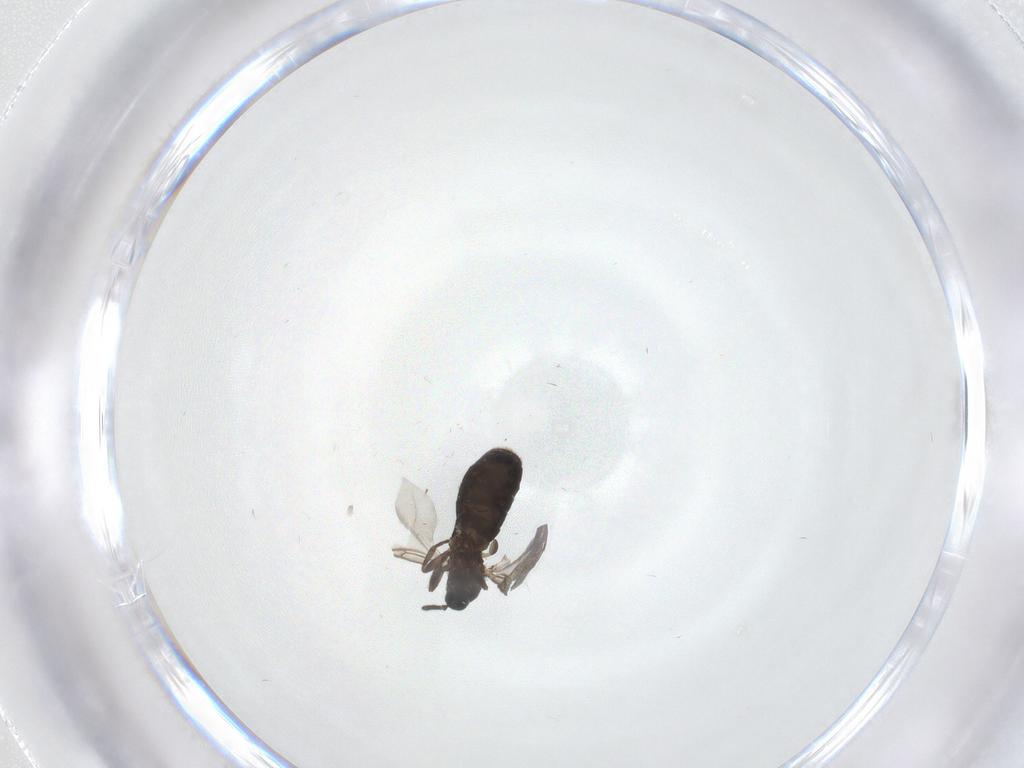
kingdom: Animalia
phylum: Arthropoda
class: Insecta
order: Diptera
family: Scatopsidae
